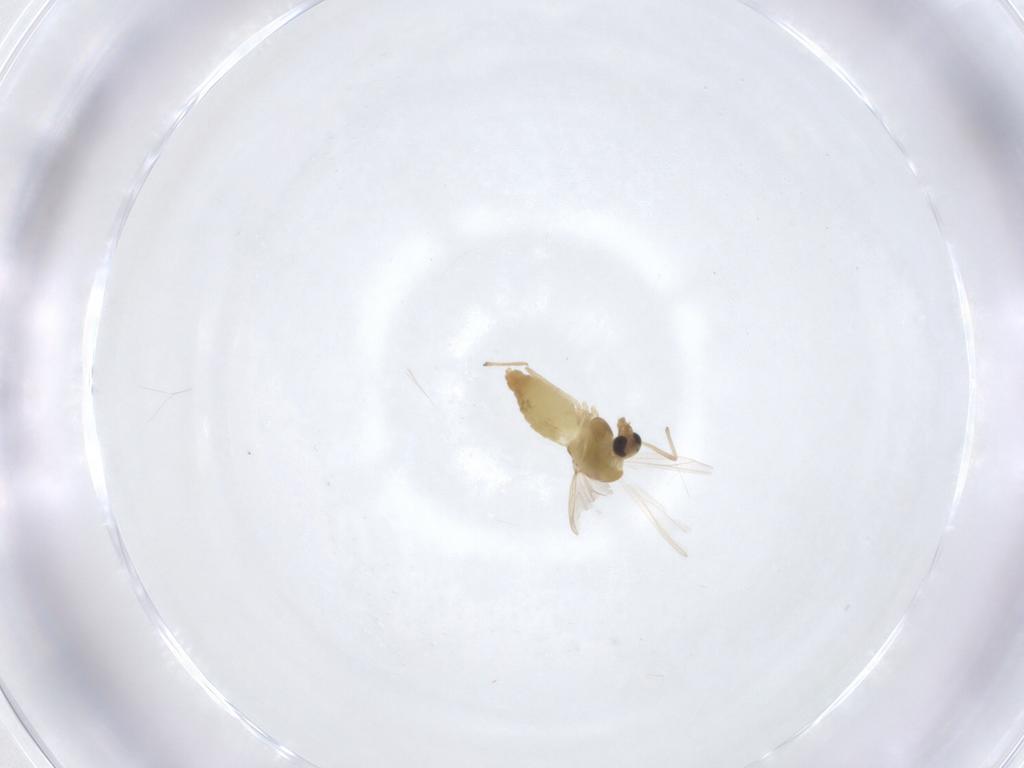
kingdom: Animalia
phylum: Arthropoda
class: Insecta
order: Diptera
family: Chironomidae
